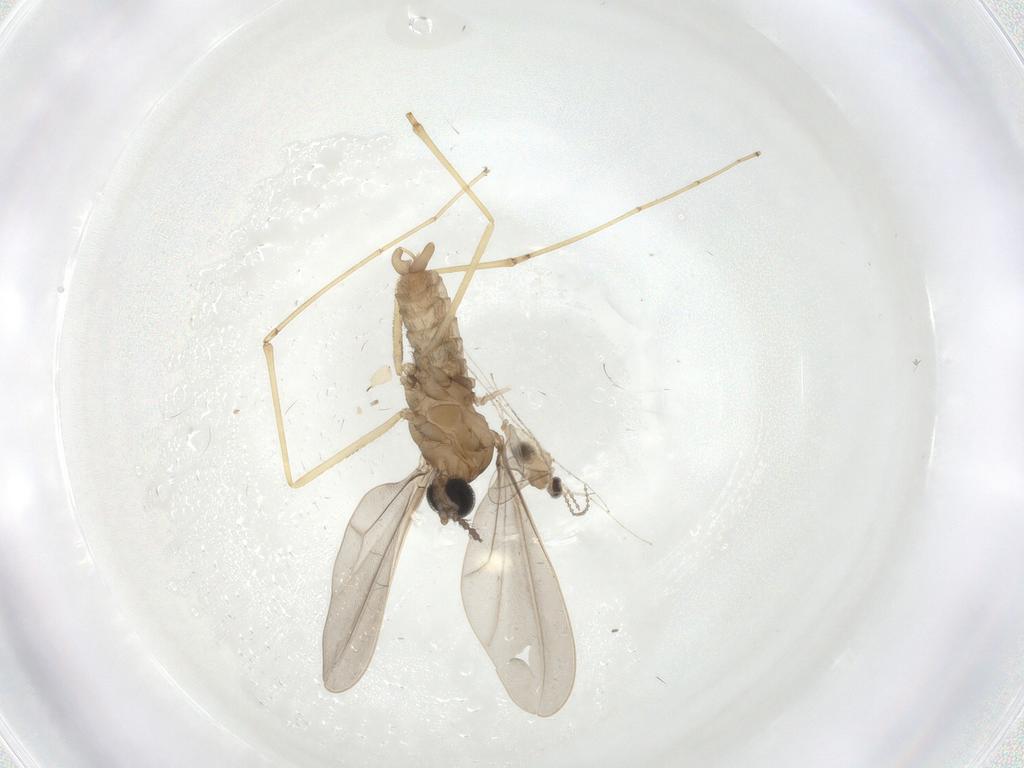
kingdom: Animalia
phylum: Arthropoda
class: Insecta
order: Diptera
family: Cecidomyiidae
